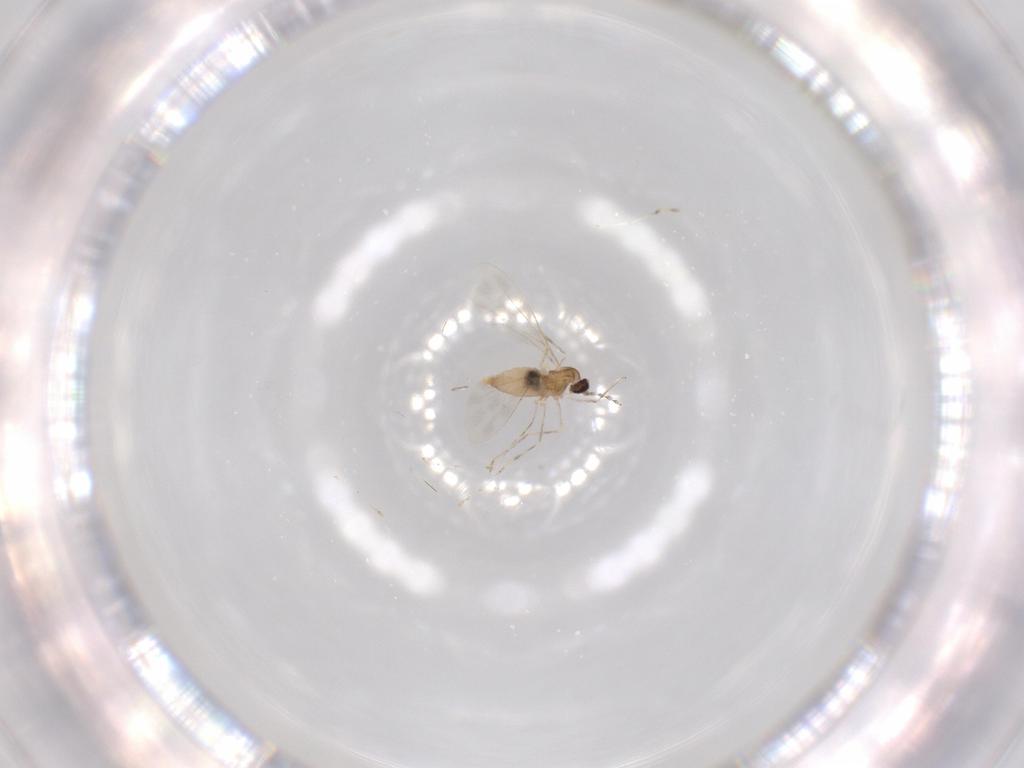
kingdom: Animalia
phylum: Arthropoda
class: Insecta
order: Diptera
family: Cecidomyiidae
